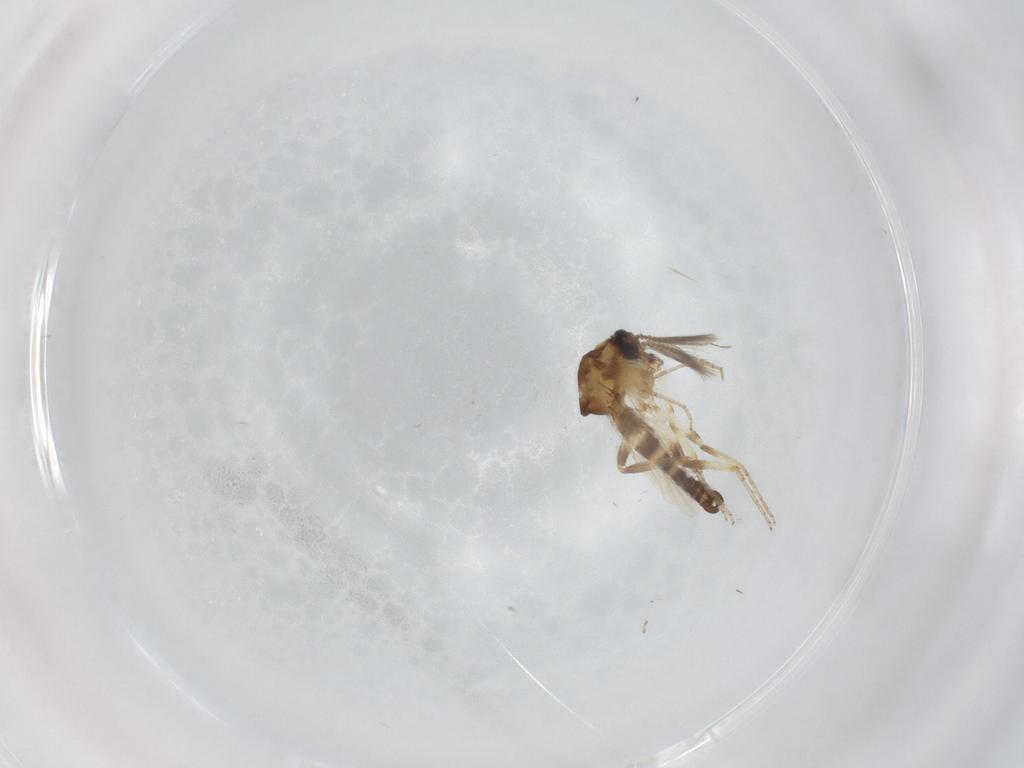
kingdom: Animalia
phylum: Arthropoda
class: Insecta
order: Diptera
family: Ceratopogonidae
